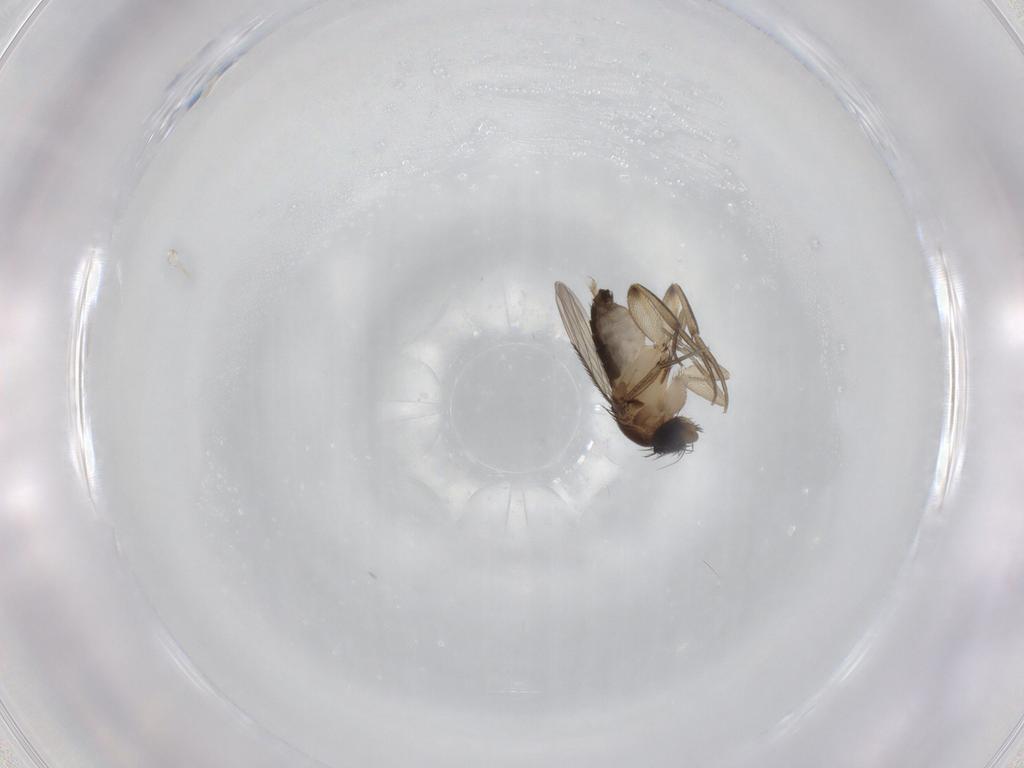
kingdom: Animalia
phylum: Arthropoda
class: Insecta
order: Diptera
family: Phoridae
